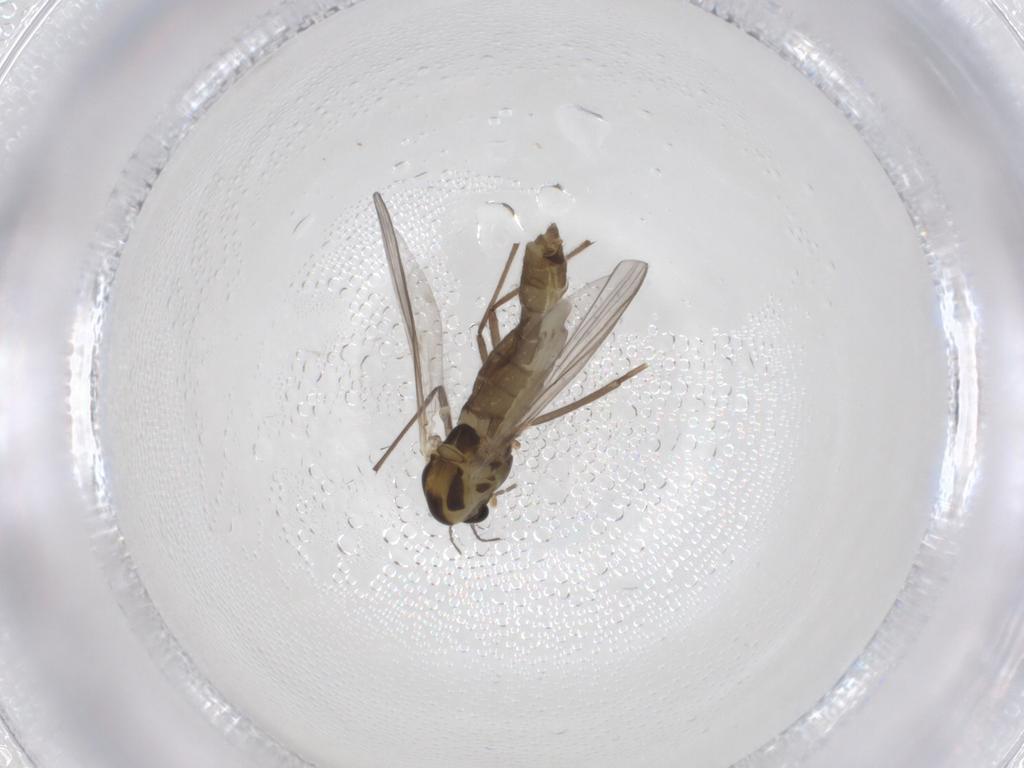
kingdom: Animalia
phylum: Arthropoda
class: Insecta
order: Diptera
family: Chironomidae
